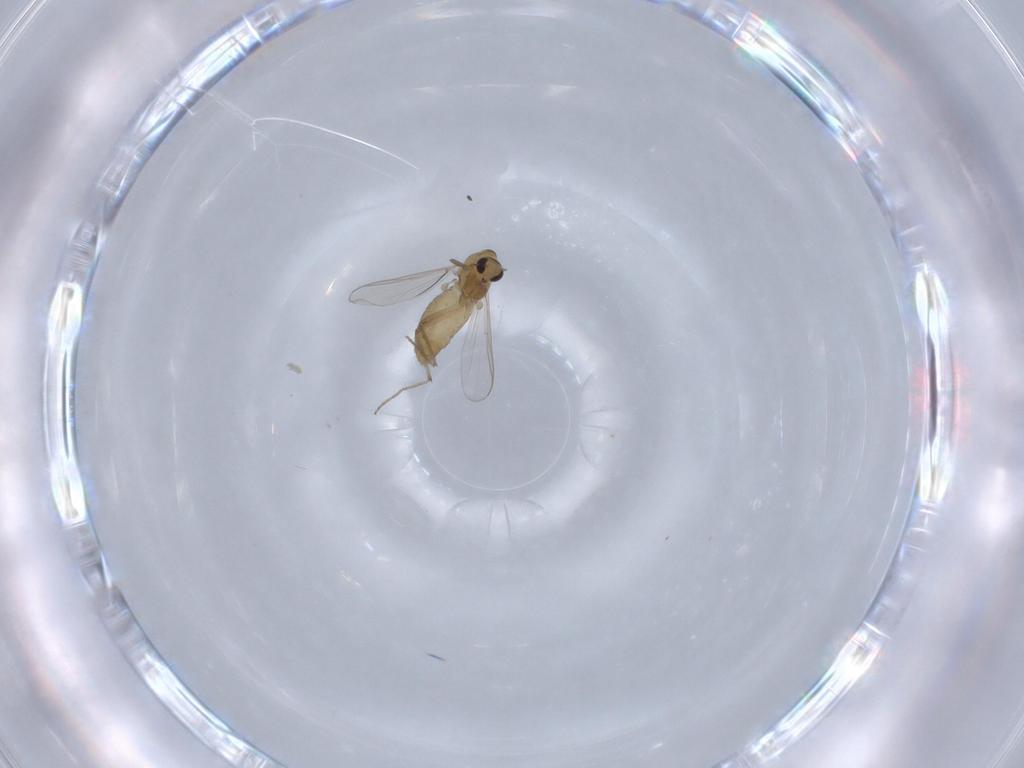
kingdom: Animalia
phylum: Arthropoda
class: Insecta
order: Diptera
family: Chironomidae
